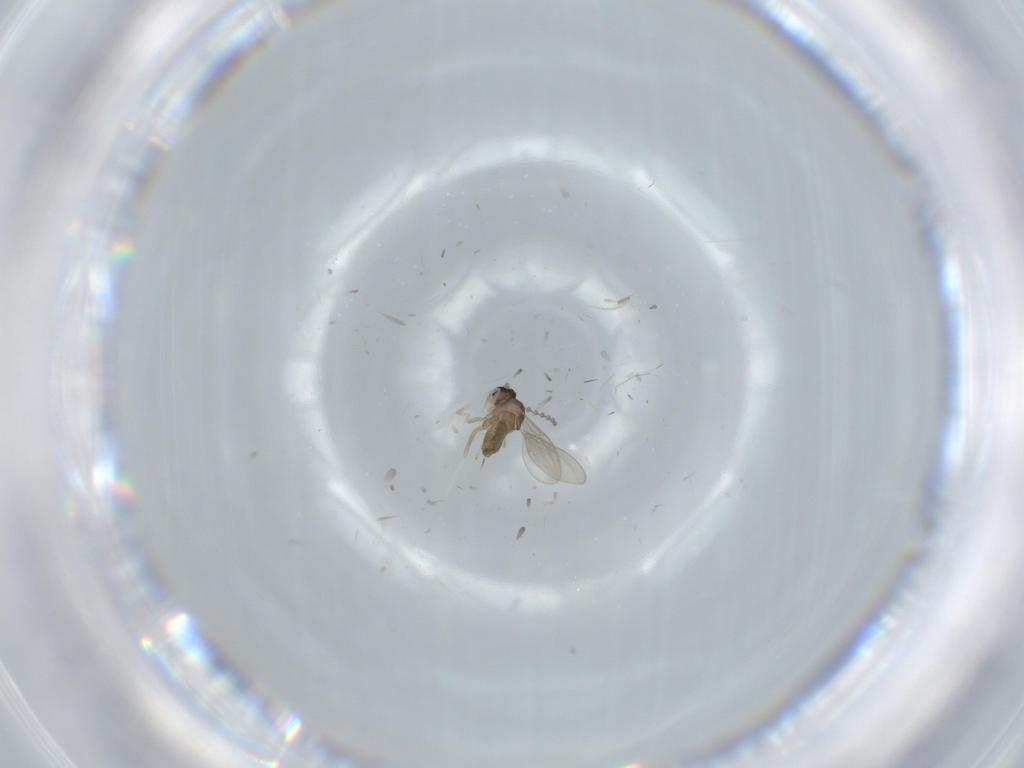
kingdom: Animalia
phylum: Arthropoda
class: Insecta
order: Diptera
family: Cecidomyiidae
